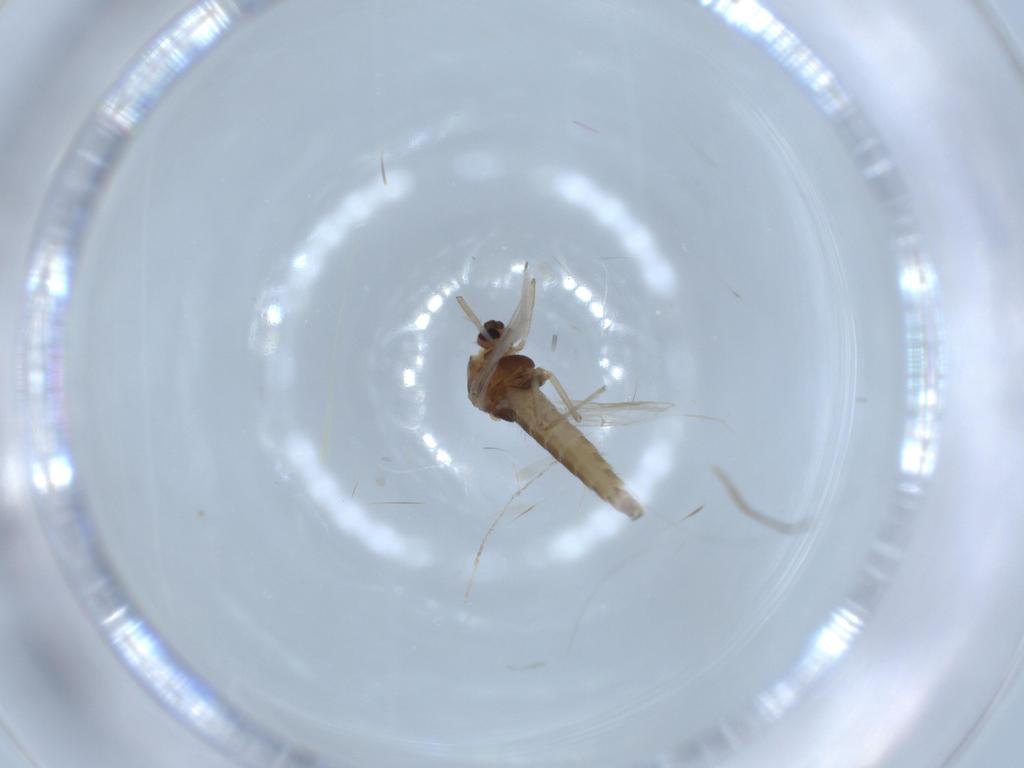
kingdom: Animalia
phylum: Arthropoda
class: Insecta
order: Diptera
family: Chironomidae
